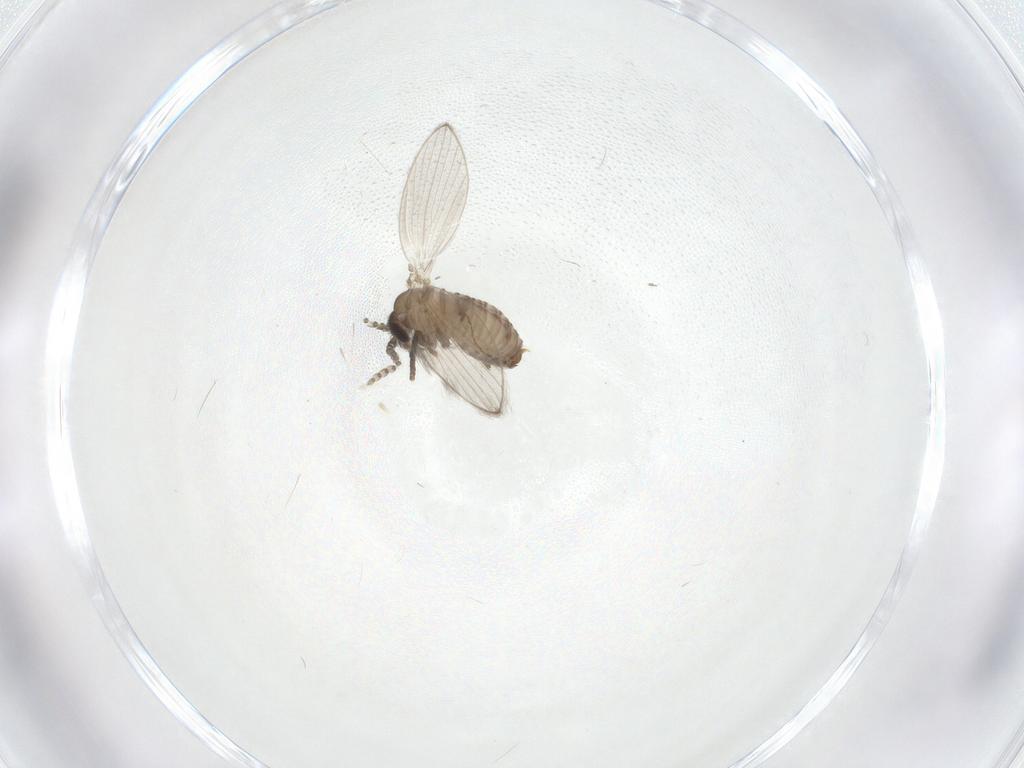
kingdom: Animalia
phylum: Arthropoda
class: Insecta
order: Diptera
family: Psychodidae
